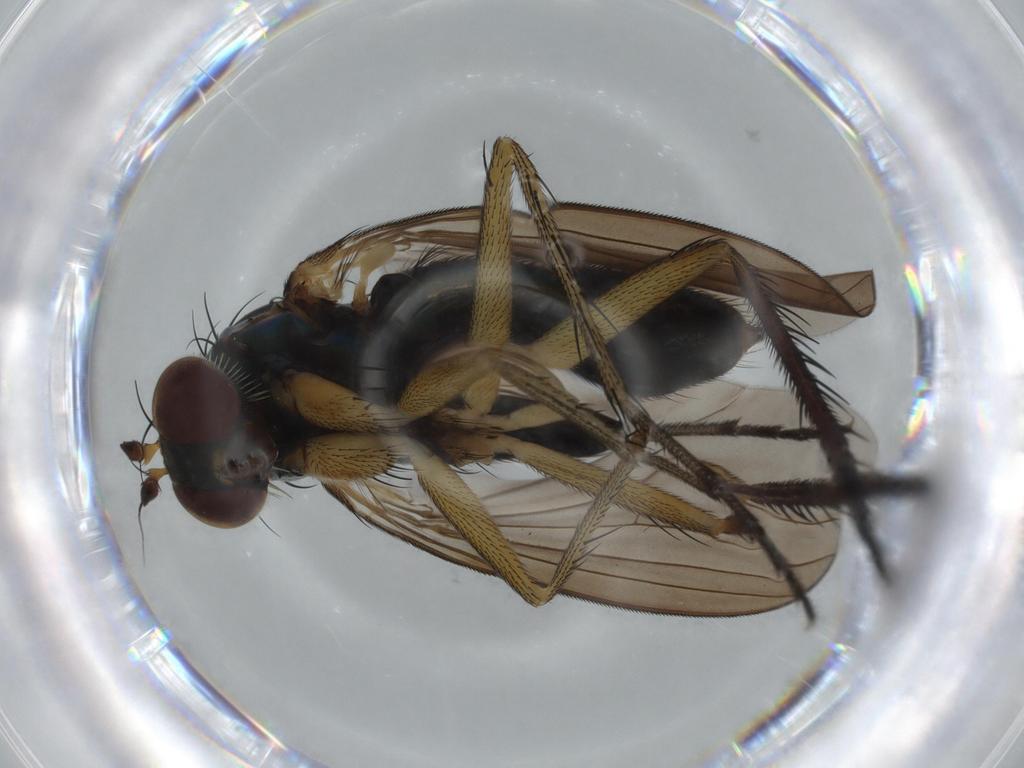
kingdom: Animalia
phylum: Arthropoda
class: Insecta
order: Diptera
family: Dolichopodidae
